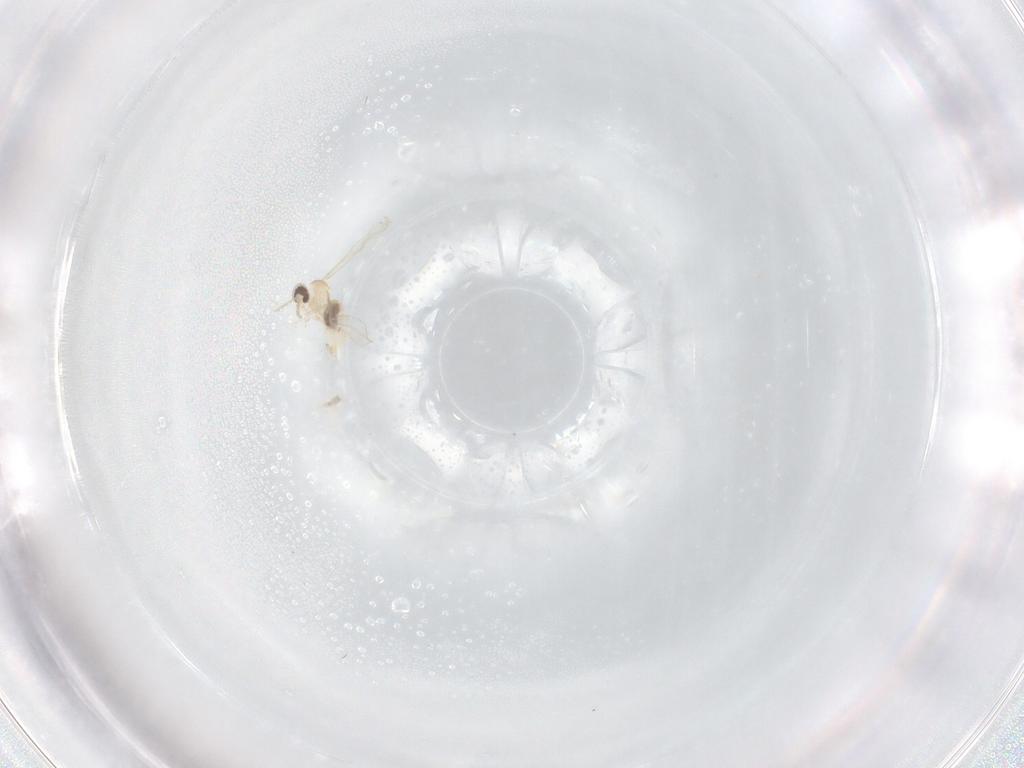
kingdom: Animalia
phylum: Arthropoda
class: Insecta
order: Diptera
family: Cecidomyiidae
